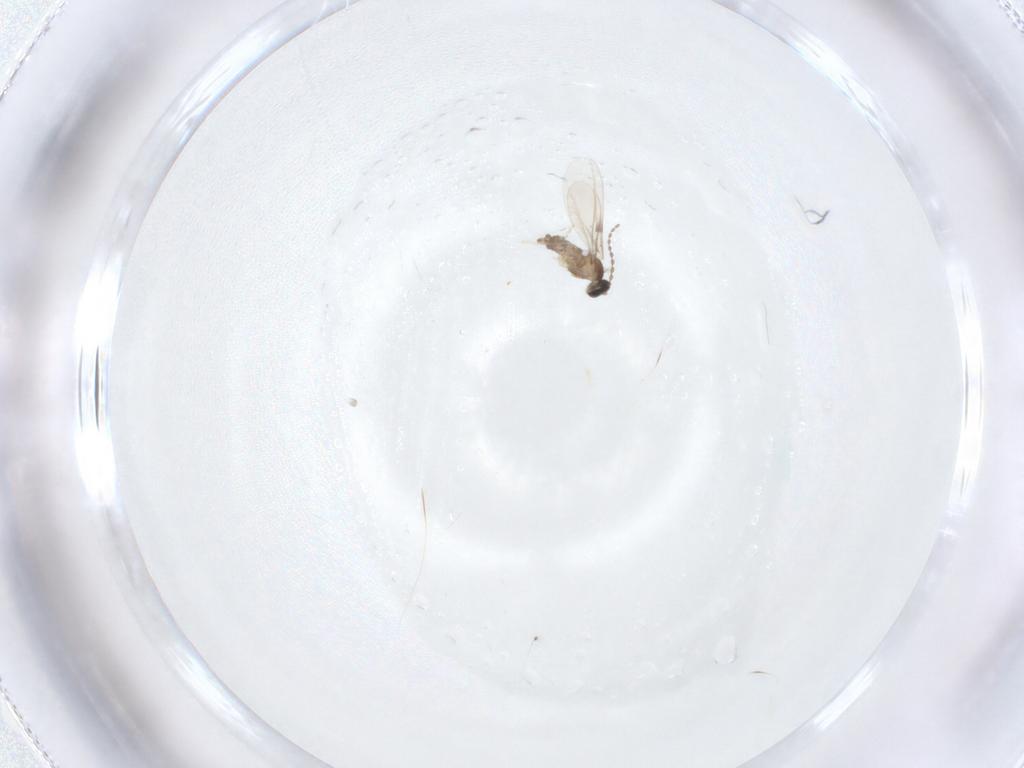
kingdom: Animalia
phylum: Arthropoda
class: Insecta
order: Diptera
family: Cecidomyiidae
